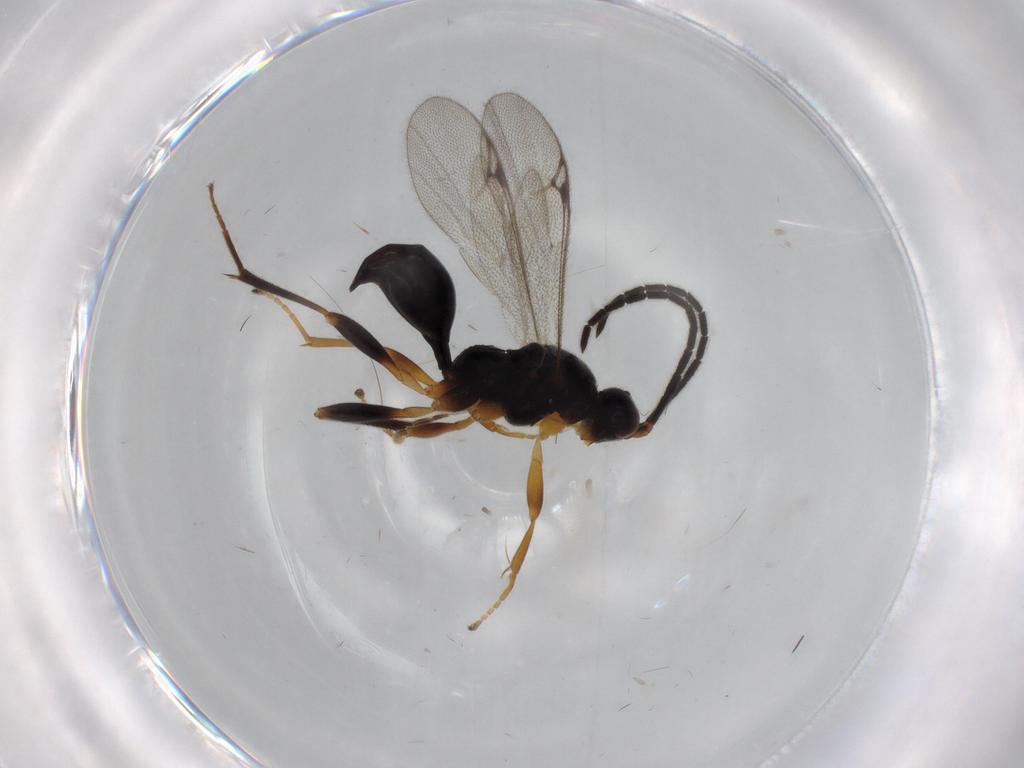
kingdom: Animalia
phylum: Arthropoda
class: Insecta
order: Hymenoptera
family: Proctotrupidae
